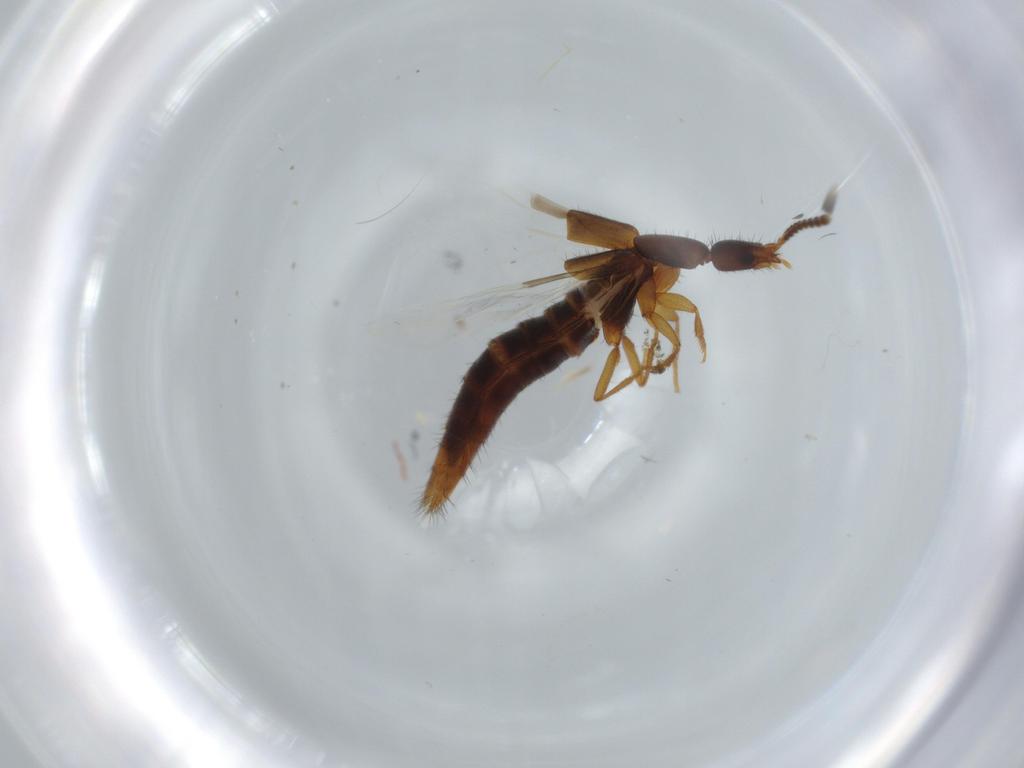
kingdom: Animalia
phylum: Arthropoda
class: Insecta
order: Coleoptera
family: Staphylinidae
